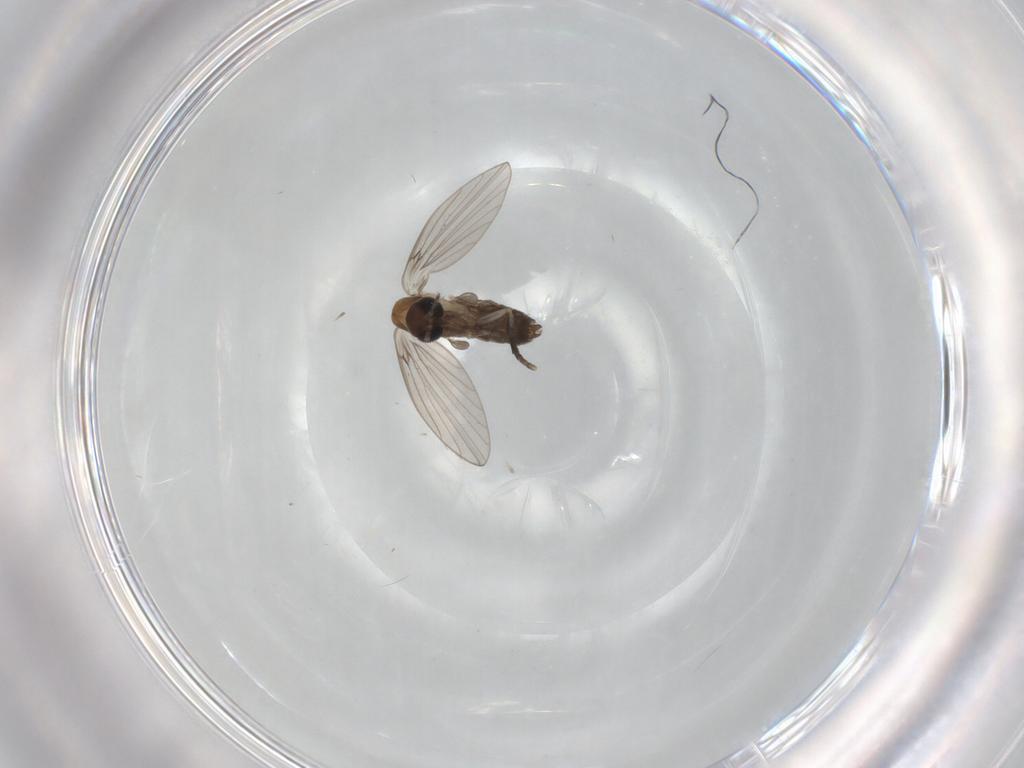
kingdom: Animalia
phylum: Arthropoda
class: Insecta
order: Diptera
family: Psychodidae
